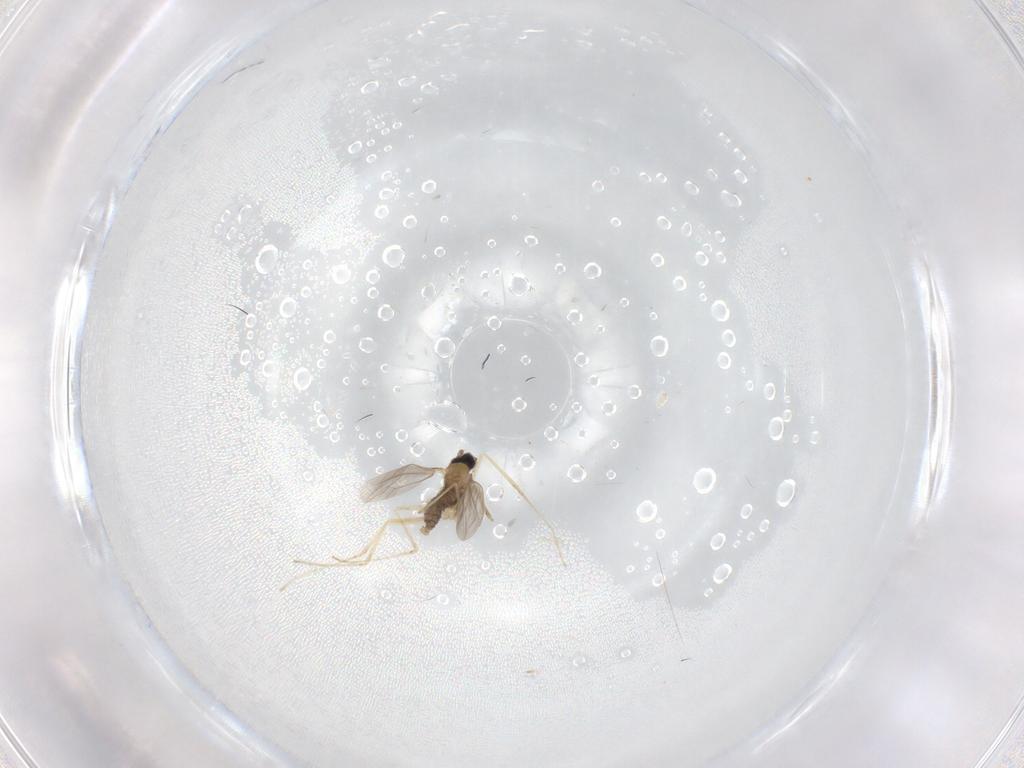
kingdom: Animalia
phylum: Arthropoda
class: Insecta
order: Diptera
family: Cecidomyiidae
